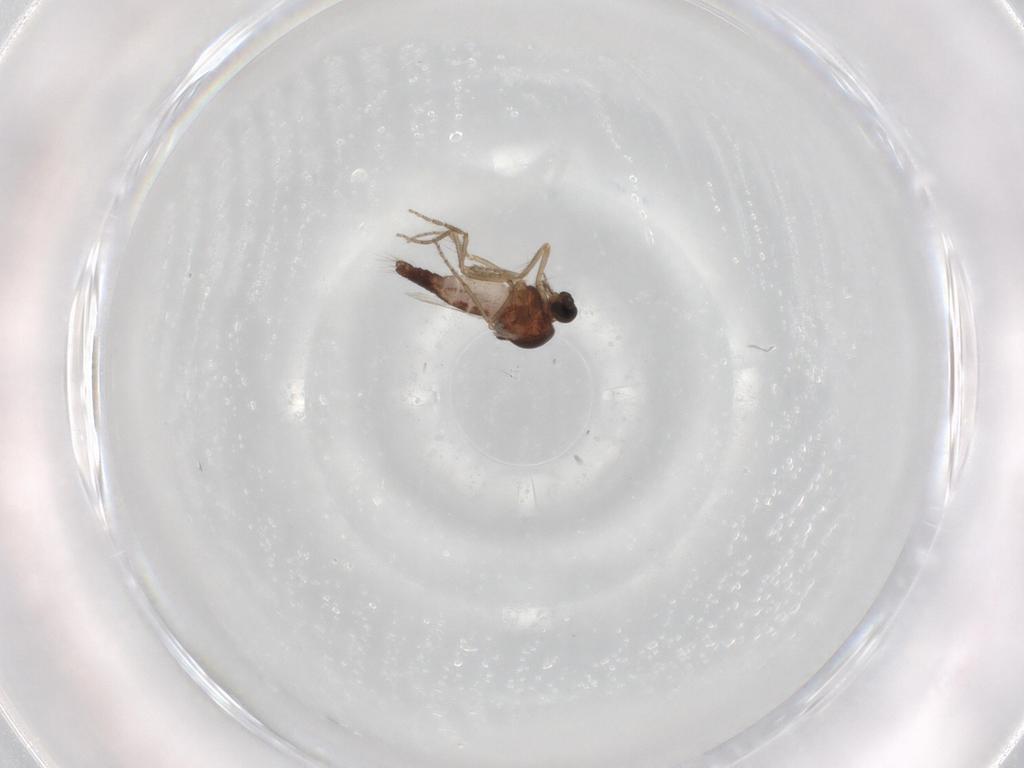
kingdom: Animalia
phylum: Arthropoda
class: Insecta
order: Diptera
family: Ceratopogonidae
